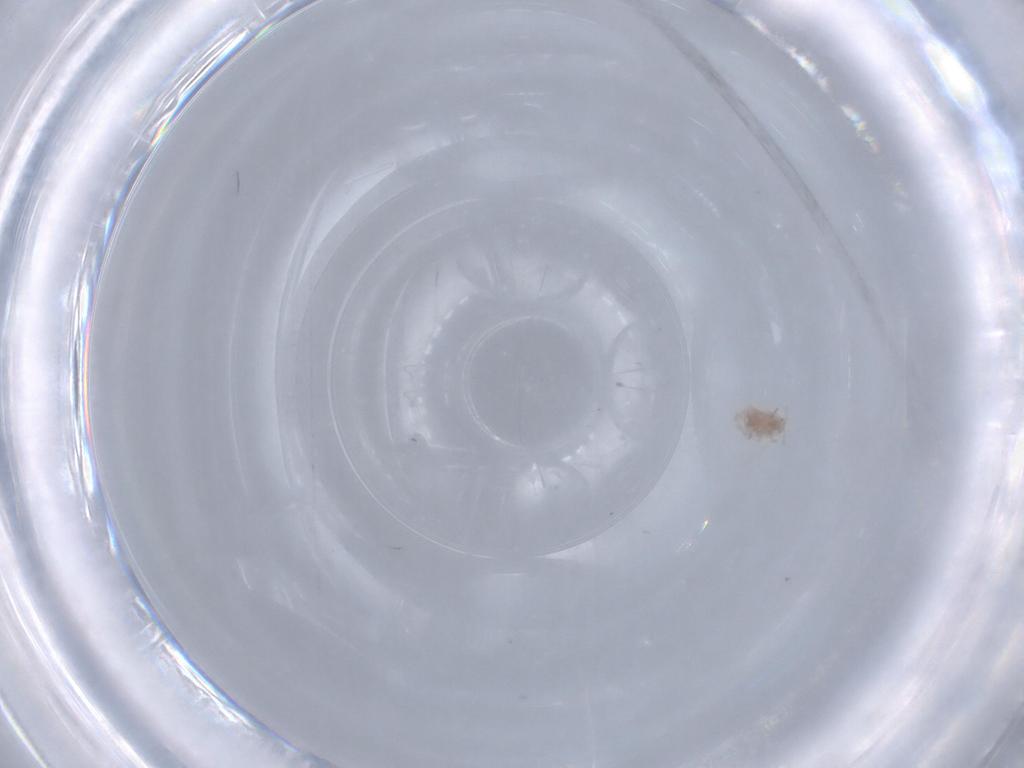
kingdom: Animalia
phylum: Arthropoda
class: Insecta
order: Hemiptera
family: Pseudococcidae
